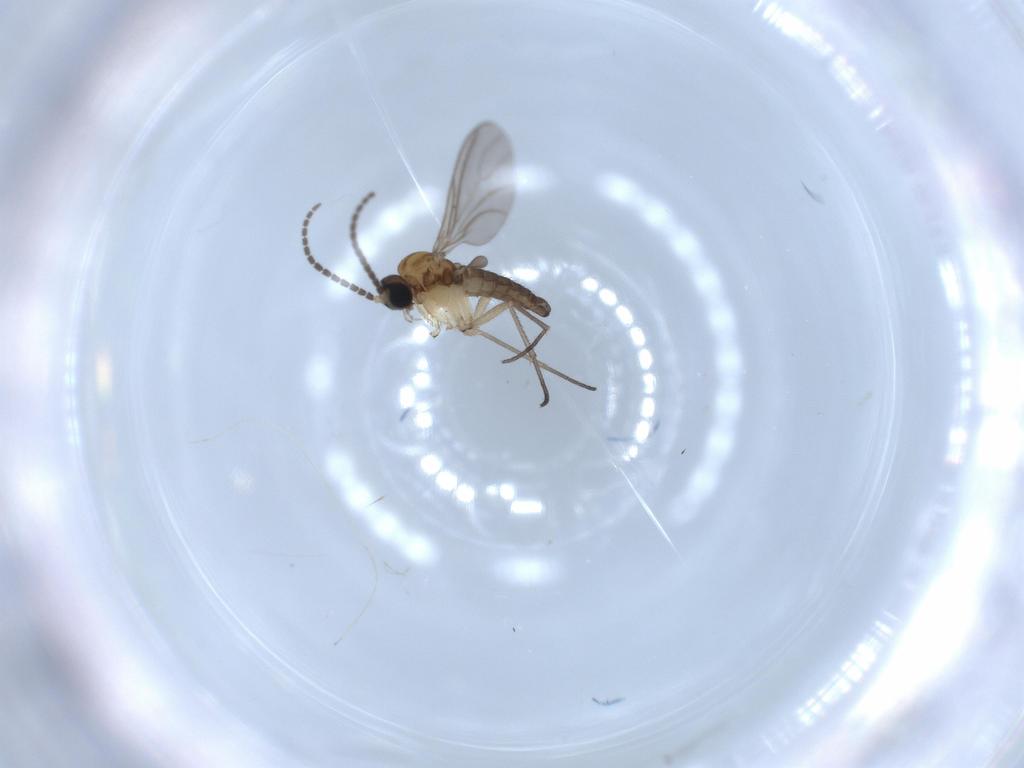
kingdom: Animalia
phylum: Arthropoda
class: Insecta
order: Diptera
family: Sciaridae
